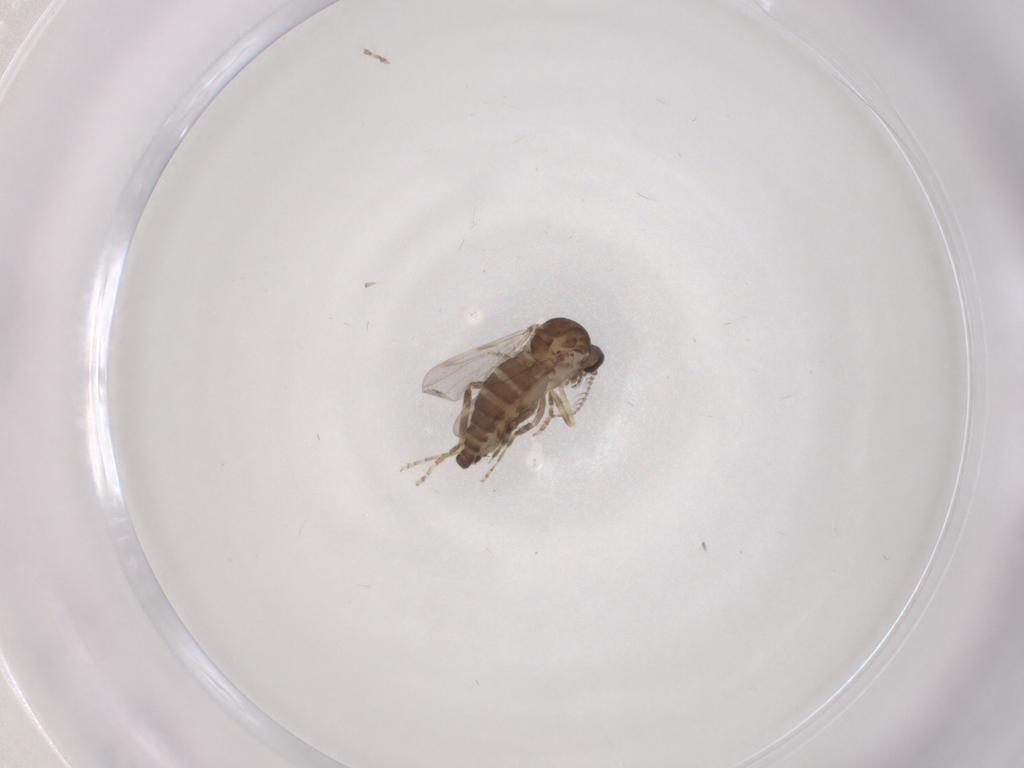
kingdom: Animalia
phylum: Arthropoda
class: Insecta
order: Diptera
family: Ceratopogonidae
